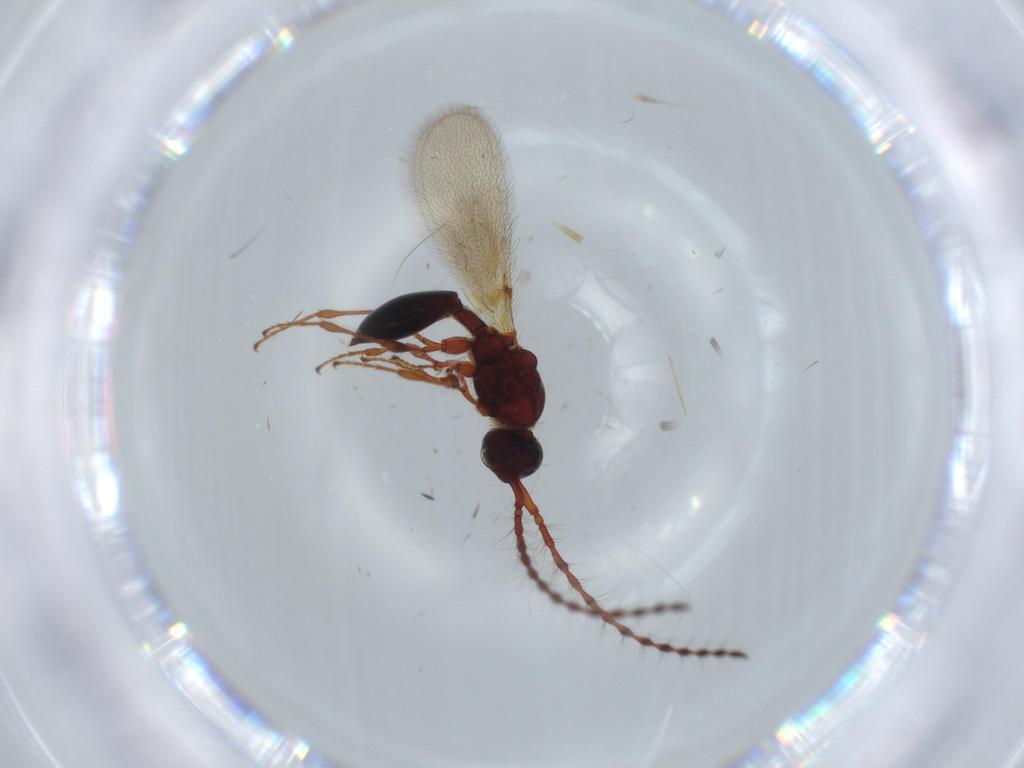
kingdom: Animalia
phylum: Arthropoda
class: Insecta
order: Hymenoptera
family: Diapriidae
